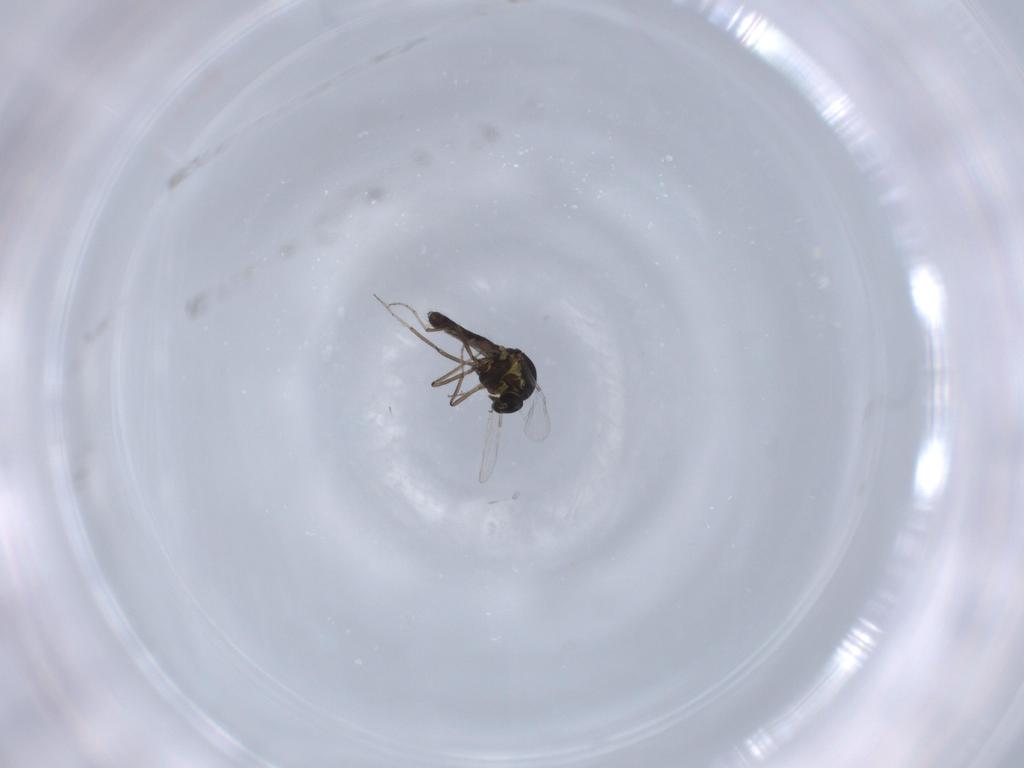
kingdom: Animalia
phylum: Arthropoda
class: Insecta
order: Diptera
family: Ceratopogonidae
